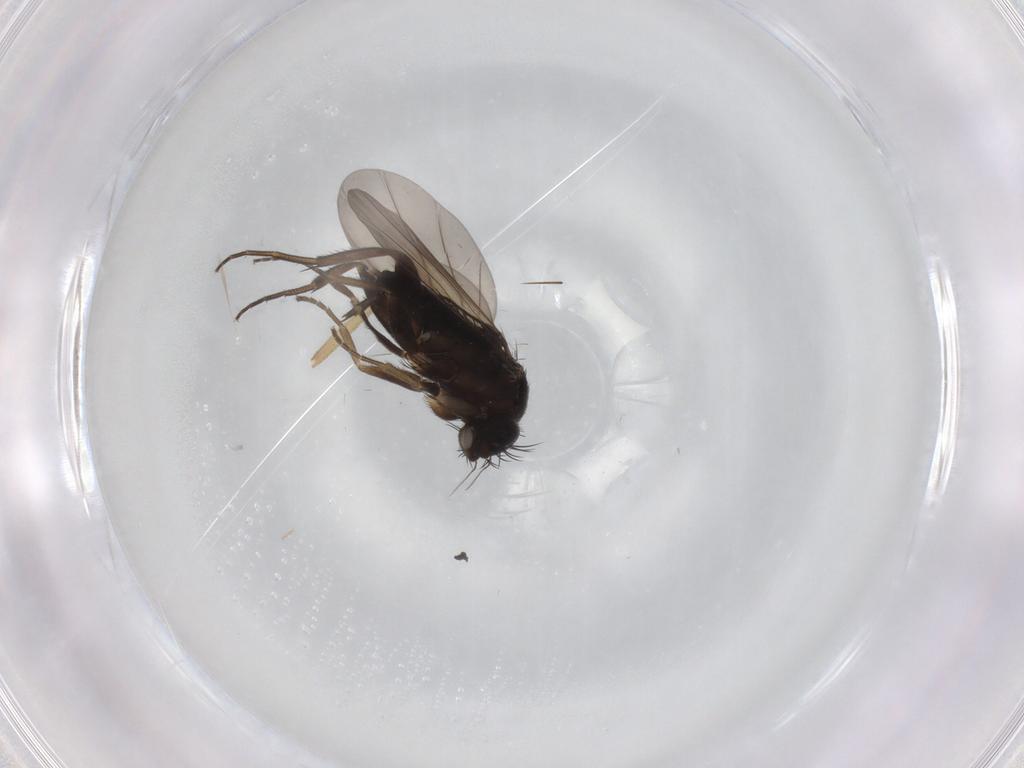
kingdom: Animalia
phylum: Arthropoda
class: Insecta
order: Diptera
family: Phoridae
